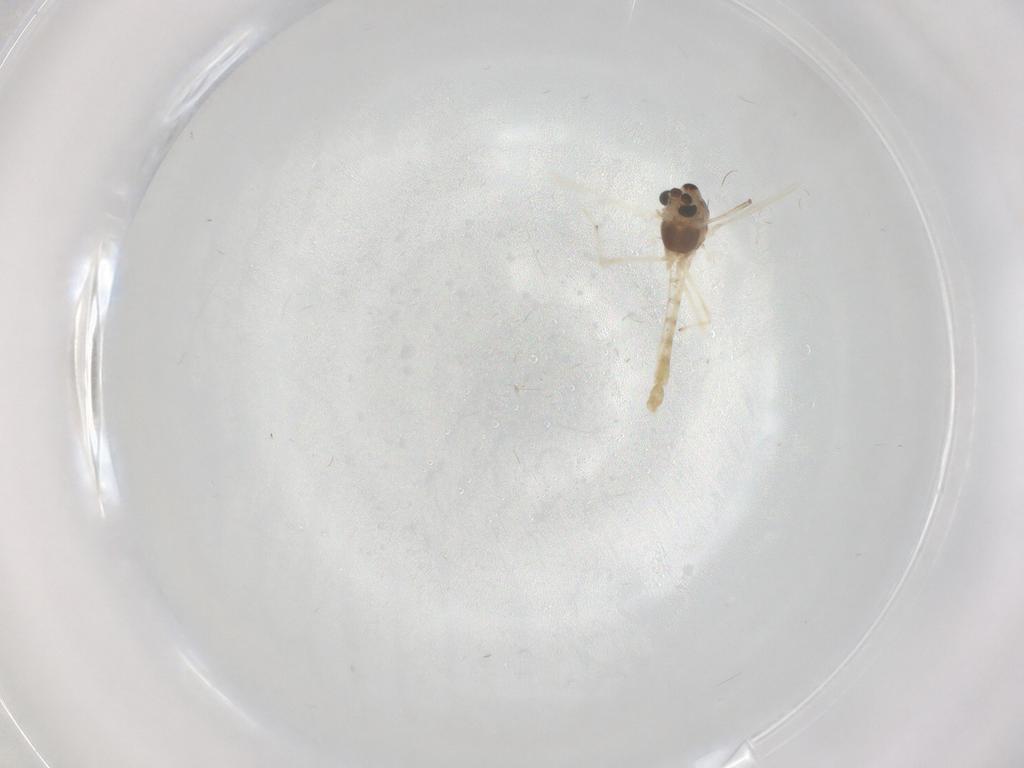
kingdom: Animalia
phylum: Arthropoda
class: Insecta
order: Diptera
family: Chironomidae
